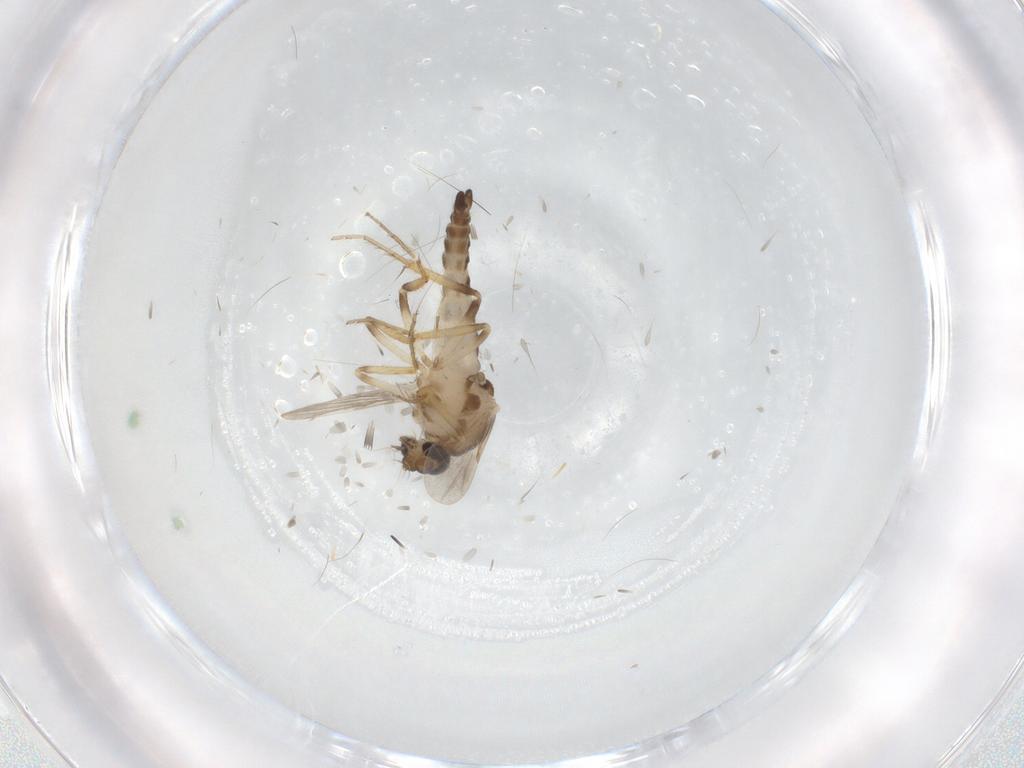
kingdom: Animalia
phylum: Arthropoda
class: Insecta
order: Diptera
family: Ceratopogonidae
